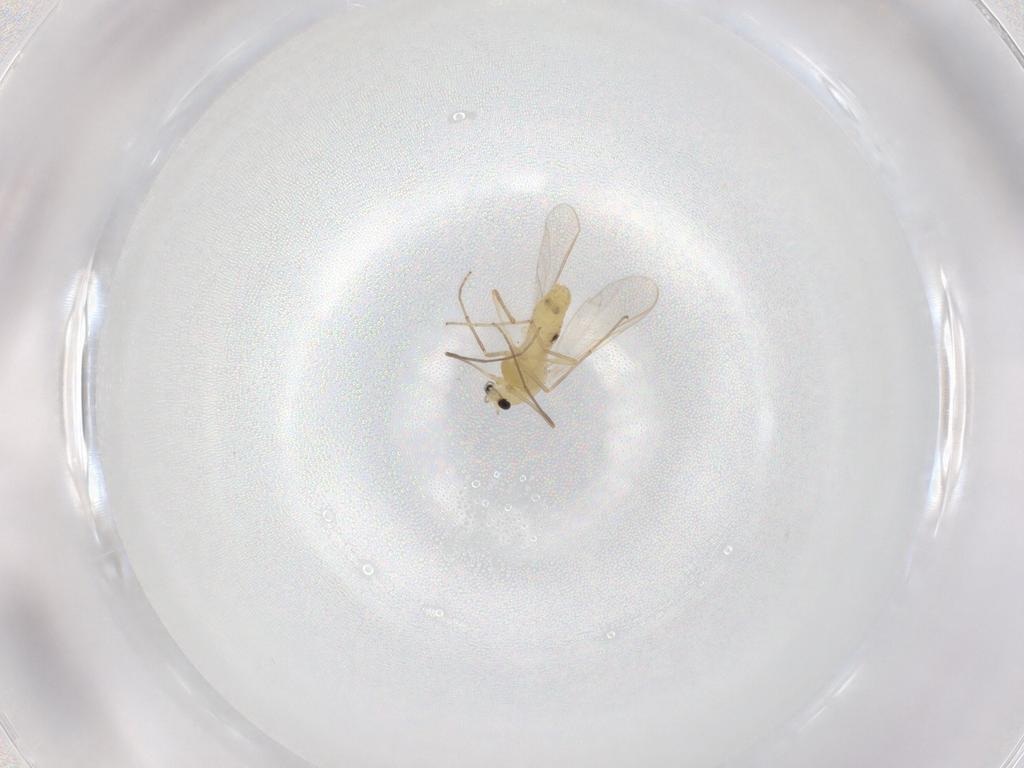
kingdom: Animalia
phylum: Arthropoda
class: Insecta
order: Diptera
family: Chironomidae
